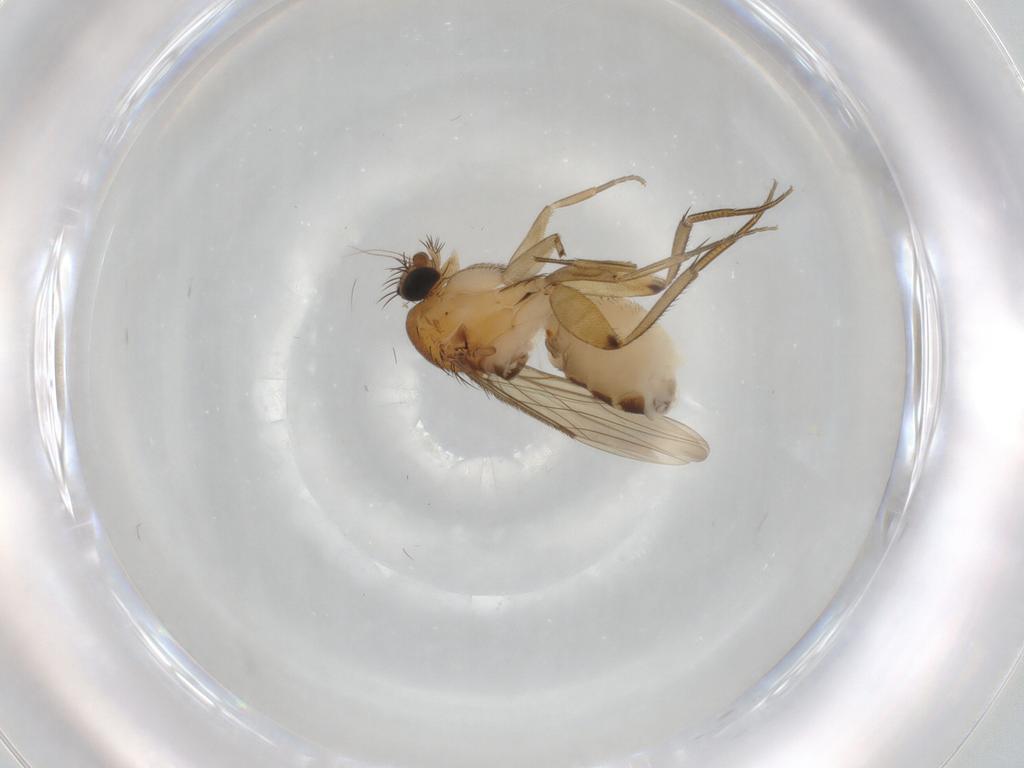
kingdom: Animalia
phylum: Arthropoda
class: Insecta
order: Diptera
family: Phoridae
